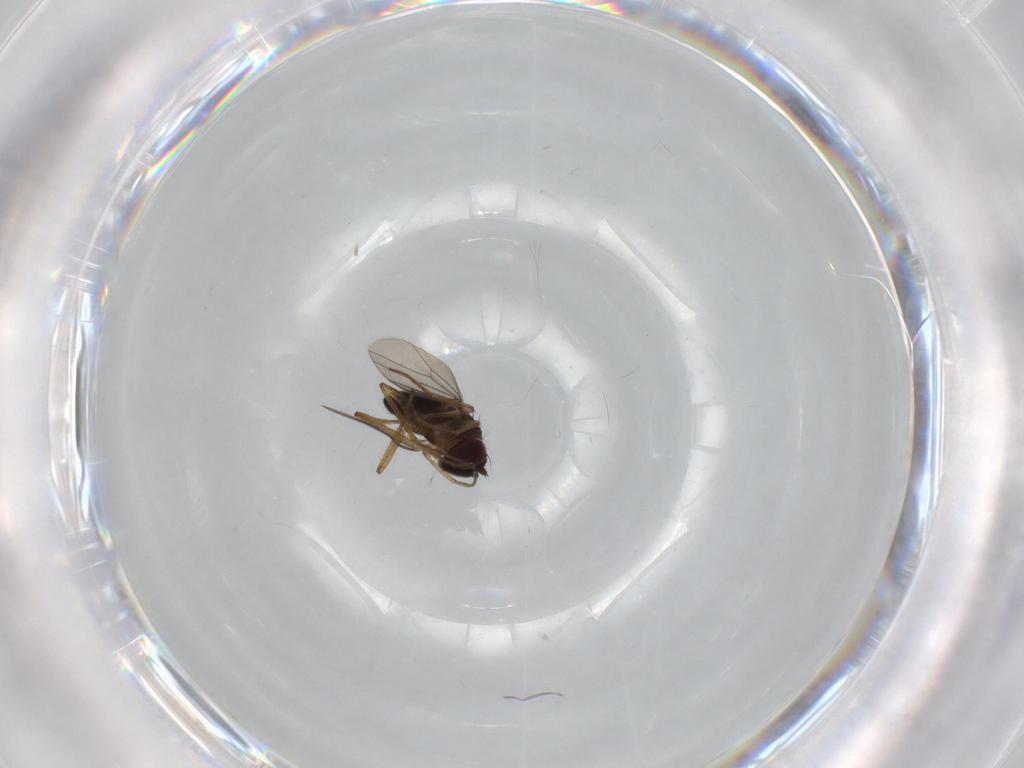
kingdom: Animalia
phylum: Arthropoda
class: Insecta
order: Diptera
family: Dolichopodidae
